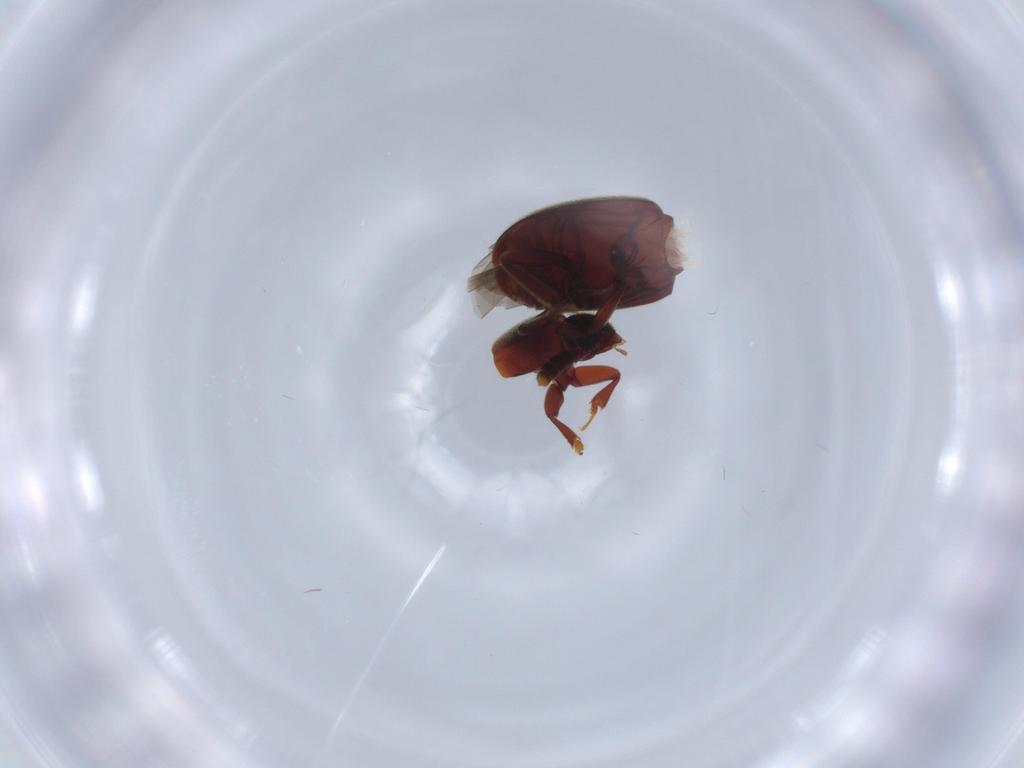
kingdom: Animalia
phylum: Arthropoda
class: Insecta
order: Coleoptera
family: Leiodidae
